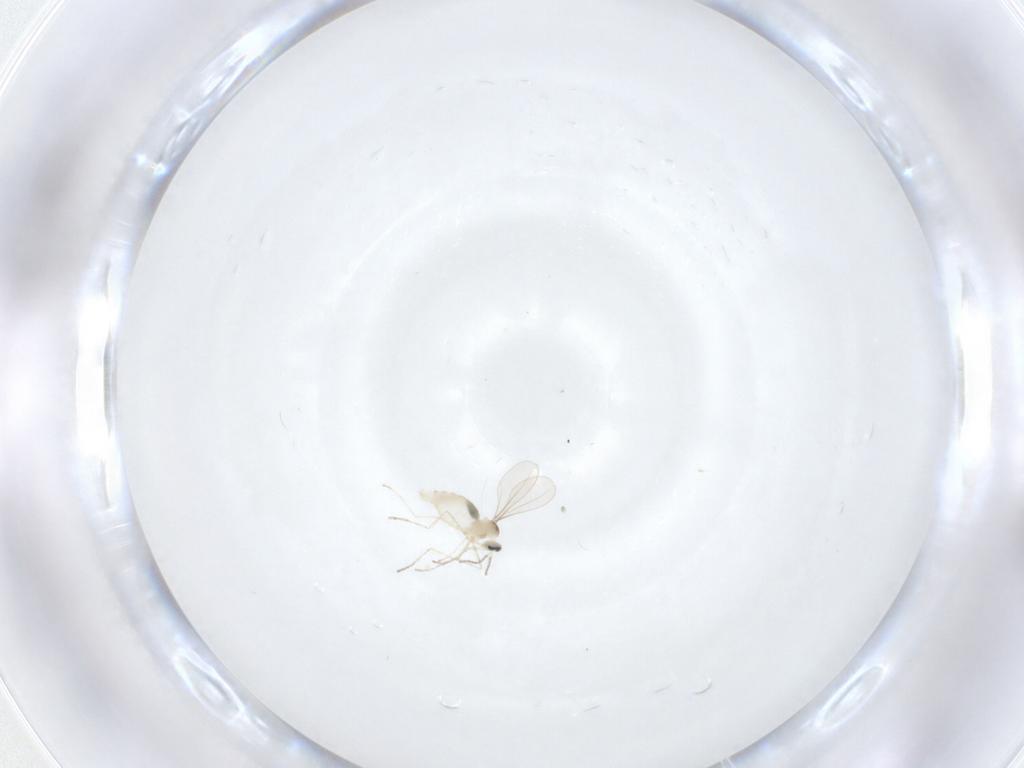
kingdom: Animalia
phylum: Arthropoda
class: Insecta
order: Diptera
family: Cecidomyiidae
